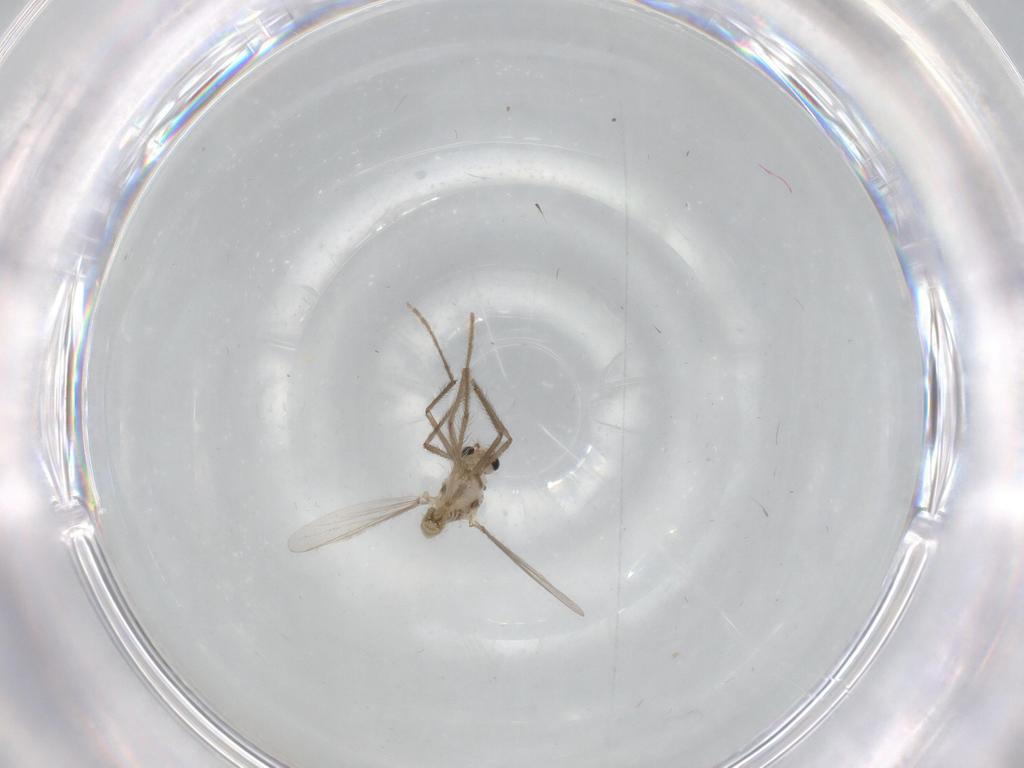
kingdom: Animalia
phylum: Arthropoda
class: Insecta
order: Diptera
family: Chironomidae
